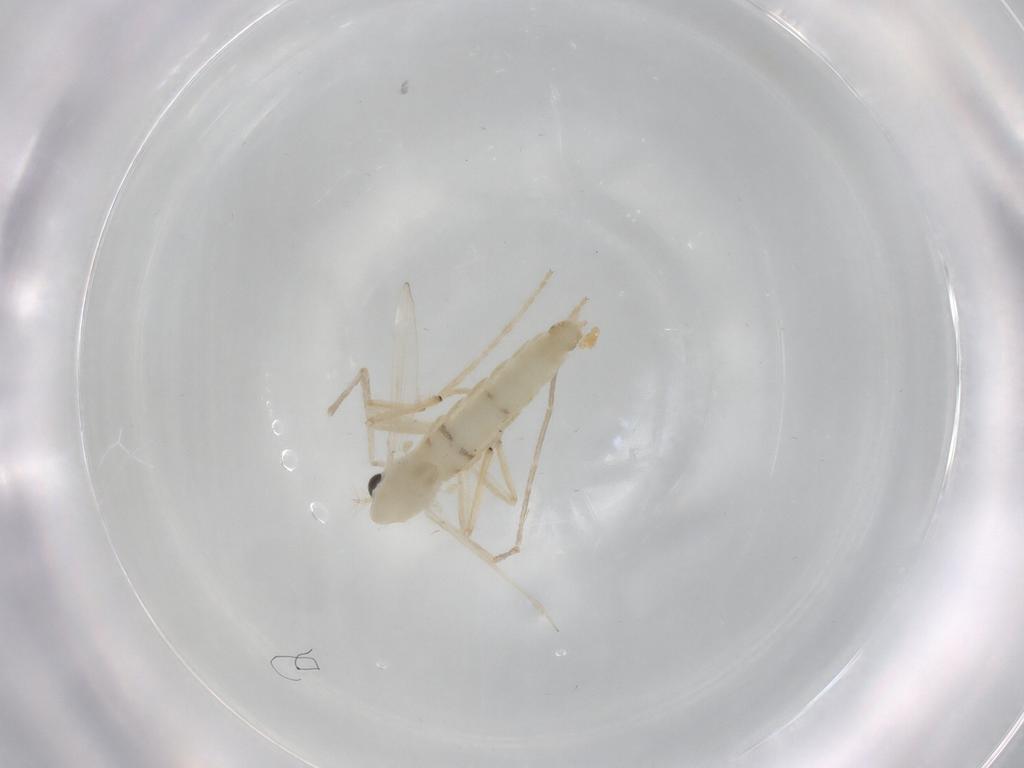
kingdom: Animalia
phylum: Arthropoda
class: Insecta
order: Diptera
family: Chironomidae
